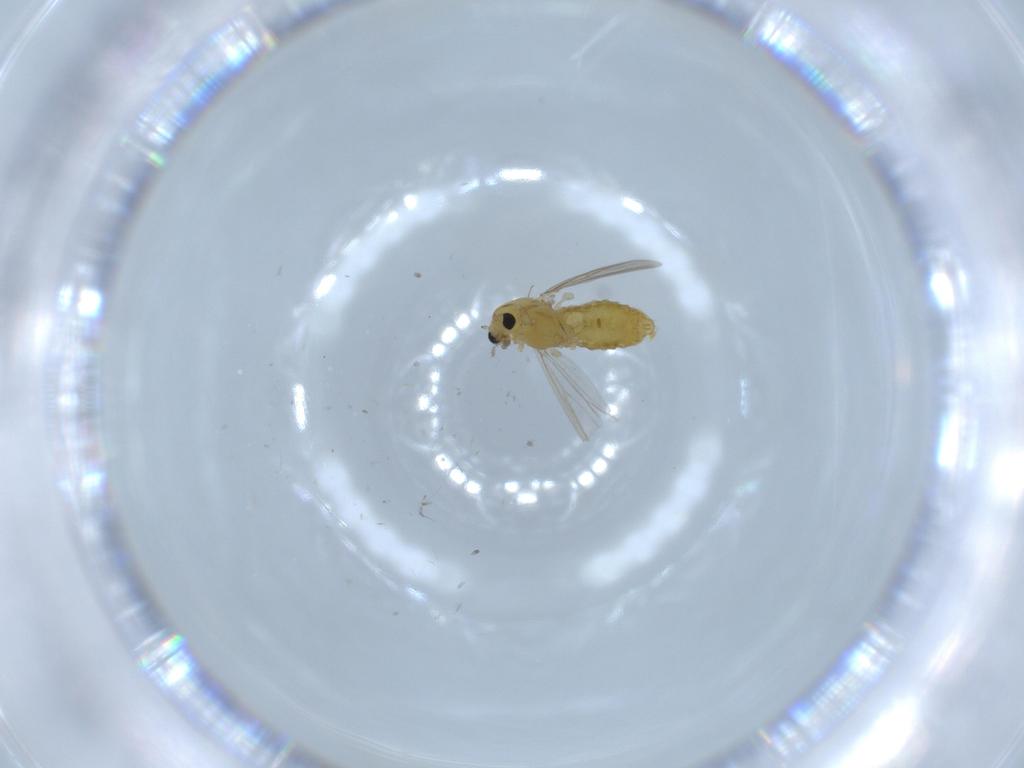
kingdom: Animalia
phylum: Arthropoda
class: Insecta
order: Diptera
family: Chironomidae
